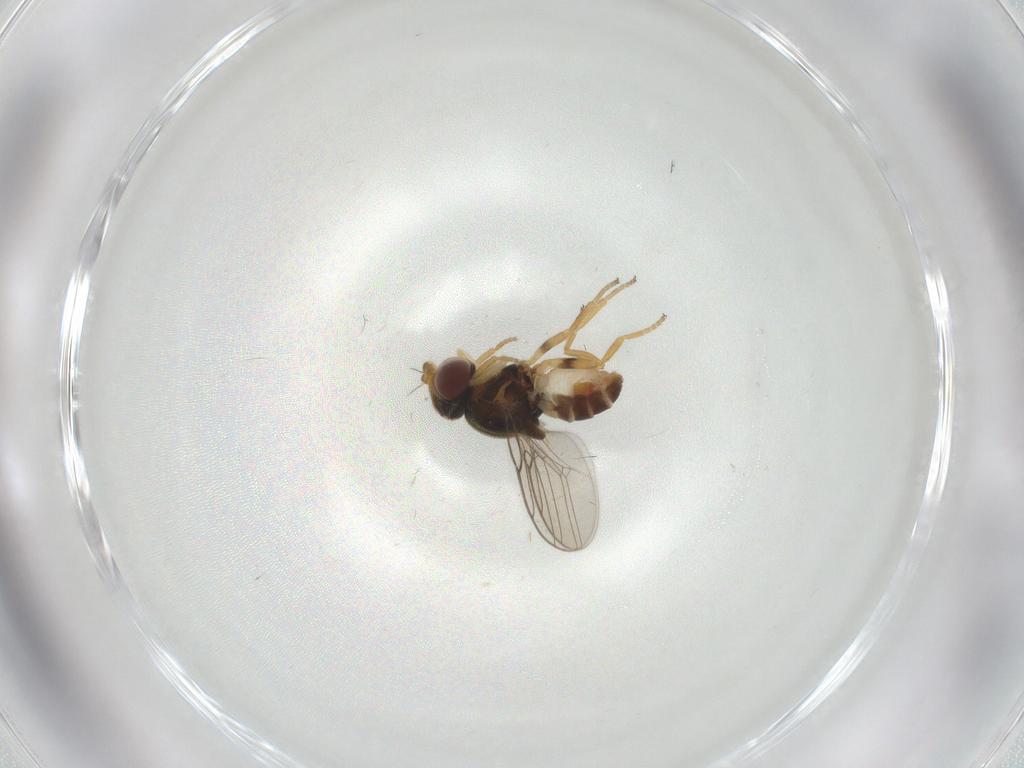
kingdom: Animalia
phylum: Arthropoda
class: Insecta
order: Diptera
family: Chloropidae
